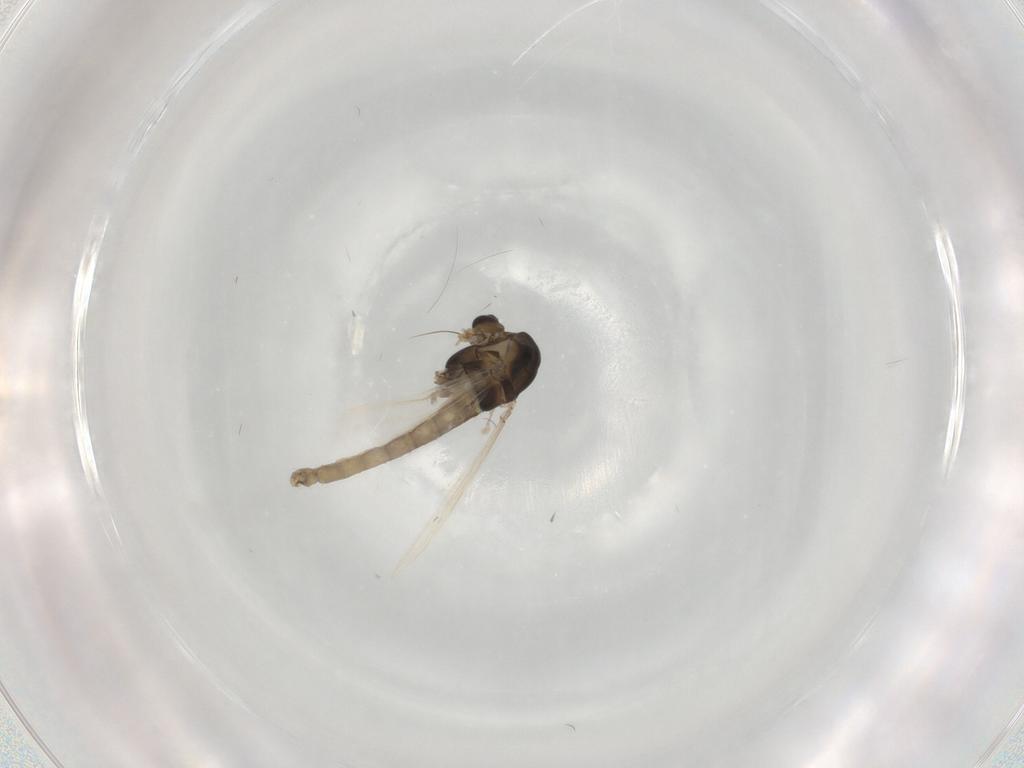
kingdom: Animalia
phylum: Arthropoda
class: Insecta
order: Diptera
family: Chironomidae
